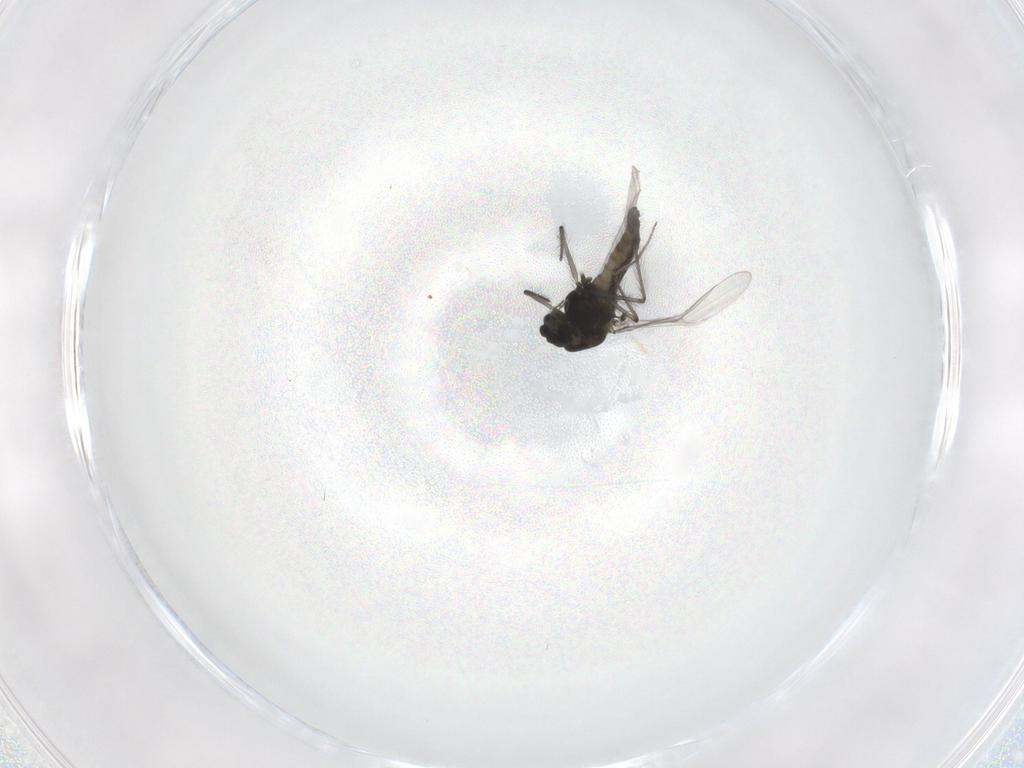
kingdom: Animalia
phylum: Arthropoda
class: Insecta
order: Diptera
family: Chironomidae
